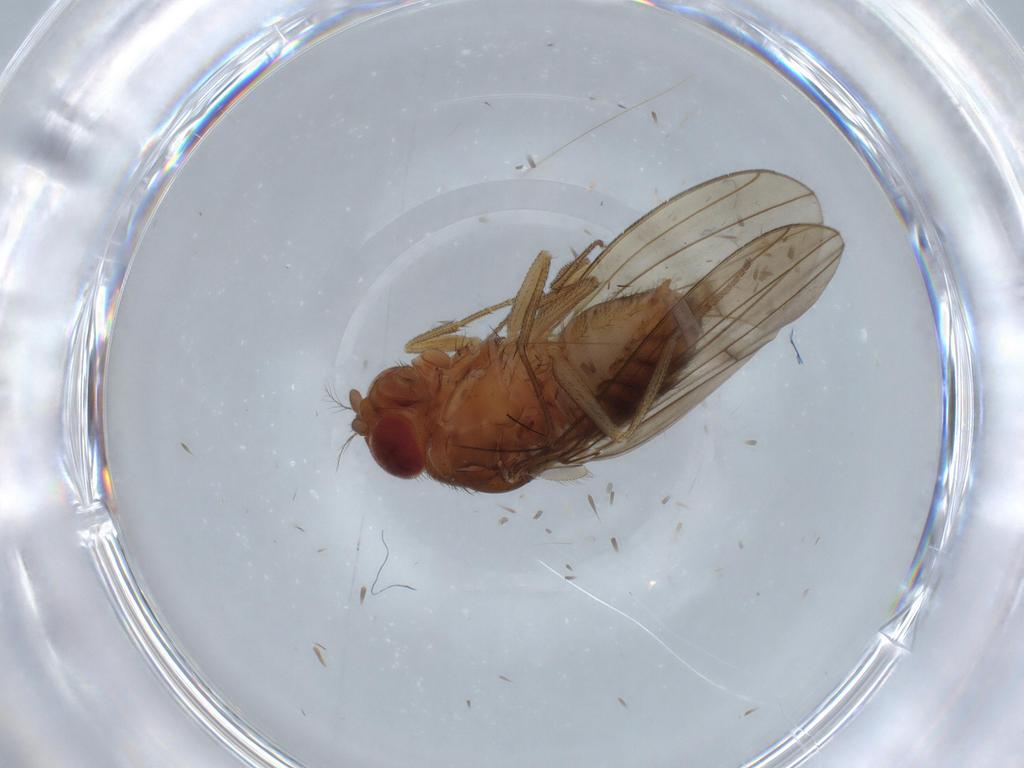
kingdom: Animalia
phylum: Arthropoda
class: Insecta
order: Diptera
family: Drosophilidae
